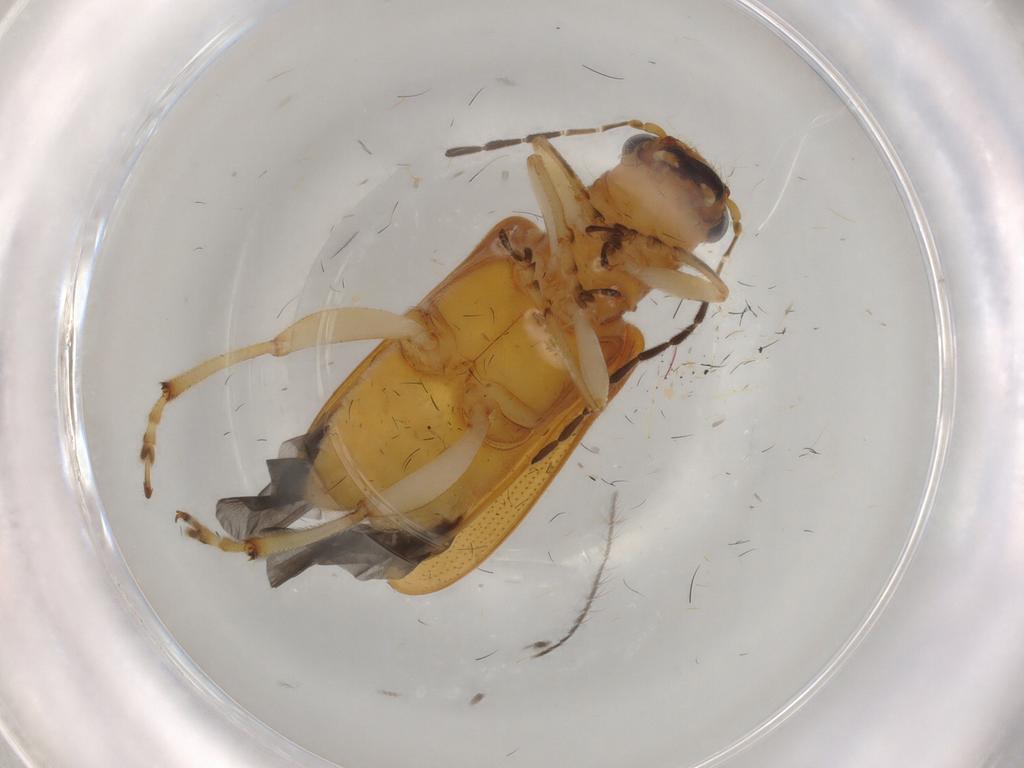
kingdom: Animalia
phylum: Arthropoda
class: Insecta
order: Coleoptera
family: Chrysomelidae
